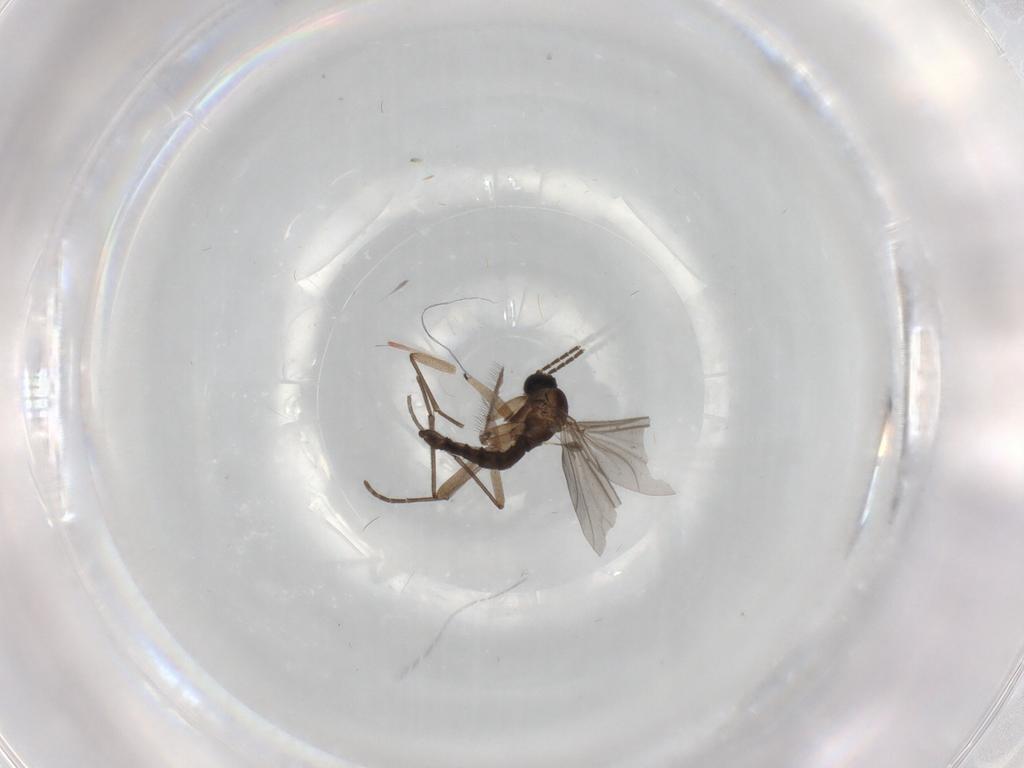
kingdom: Animalia
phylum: Arthropoda
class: Insecta
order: Diptera
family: Sciaridae
